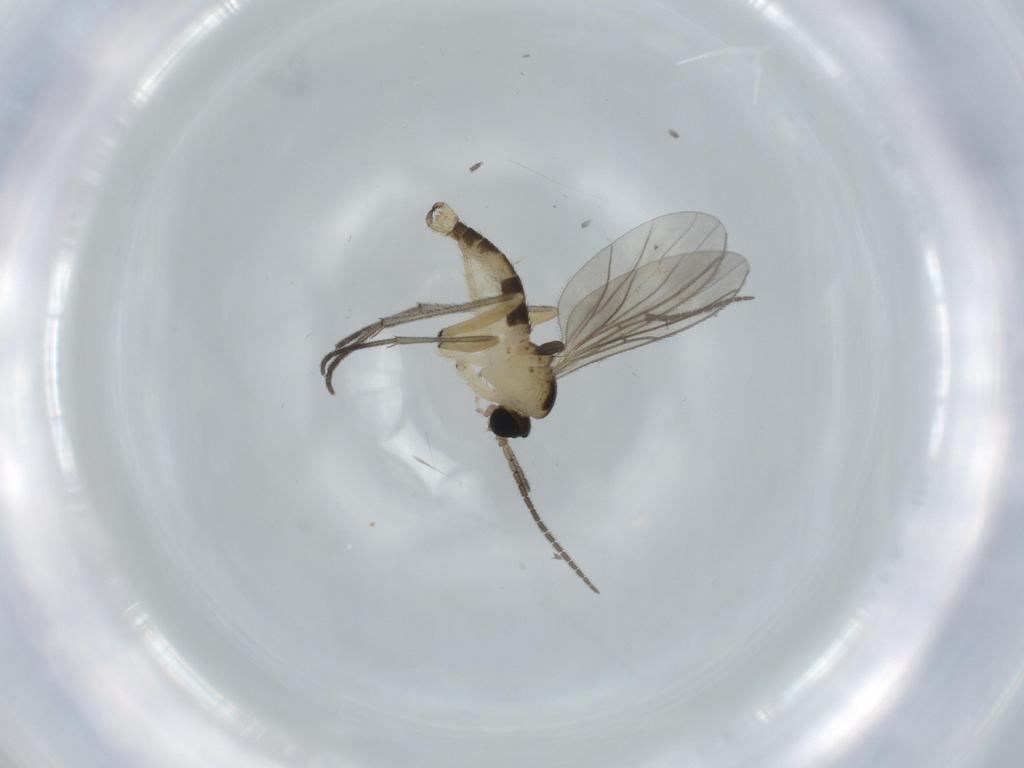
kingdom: Animalia
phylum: Arthropoda
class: Insecta
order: Diptera
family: Sciaridae
